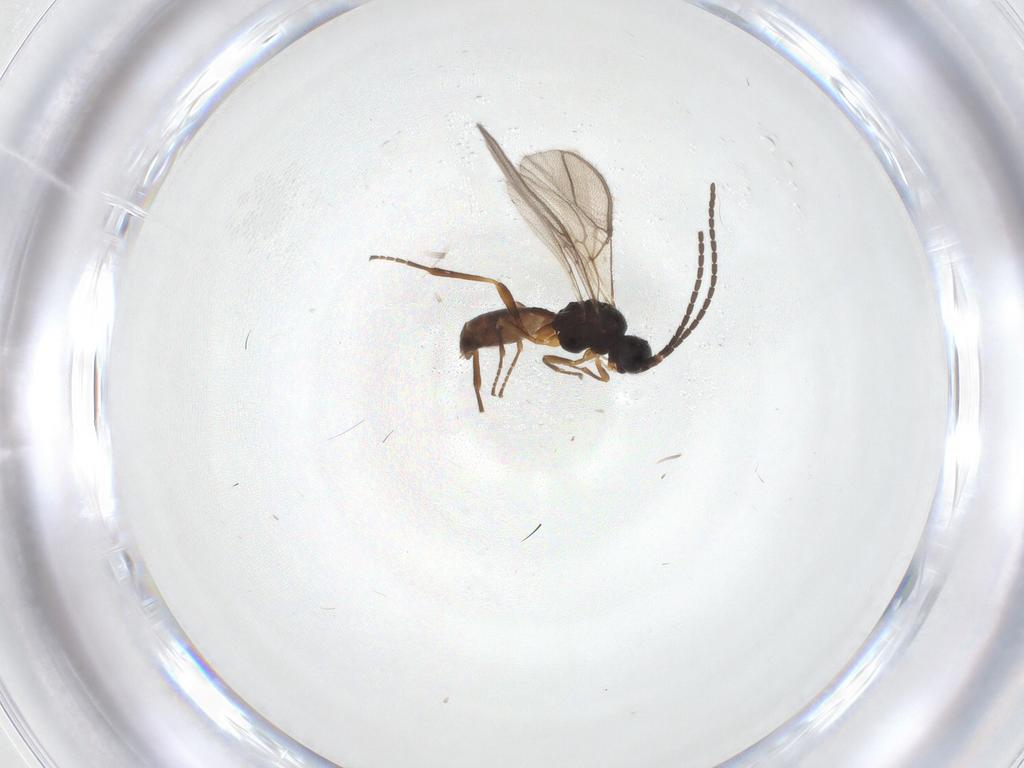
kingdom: Animalia
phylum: Arthropoda
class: Insecta
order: Hymenoptera
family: Braconidae
